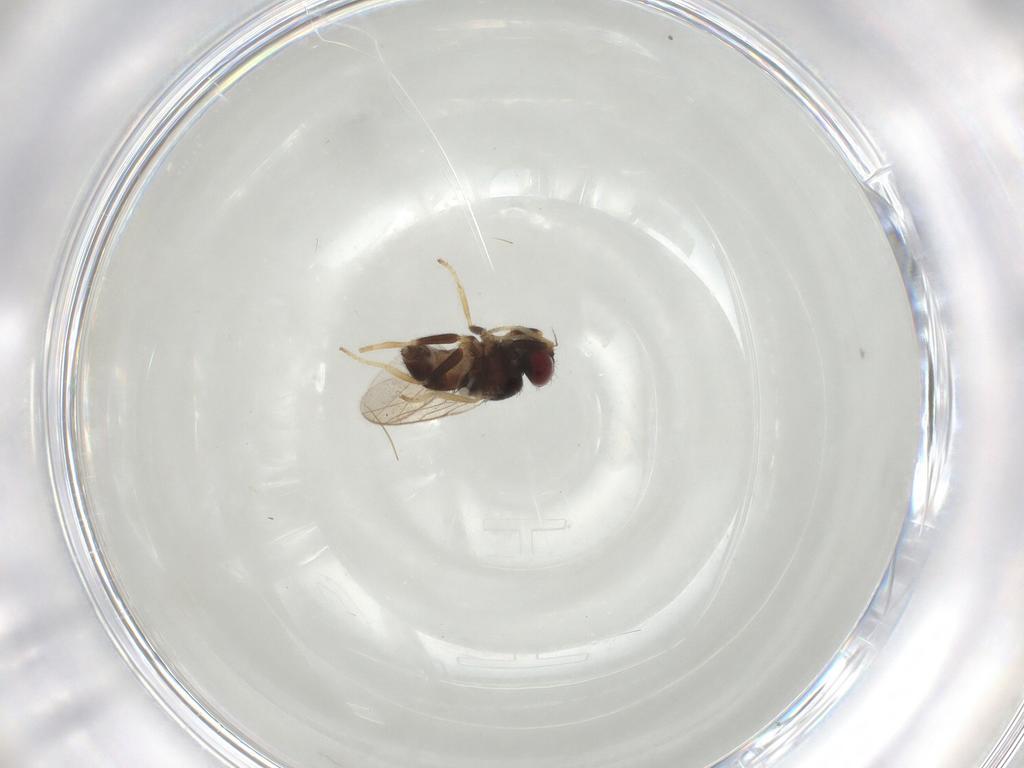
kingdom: Animalia
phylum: Arthropoda
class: Insecta
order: Diptera
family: Chloropidae
